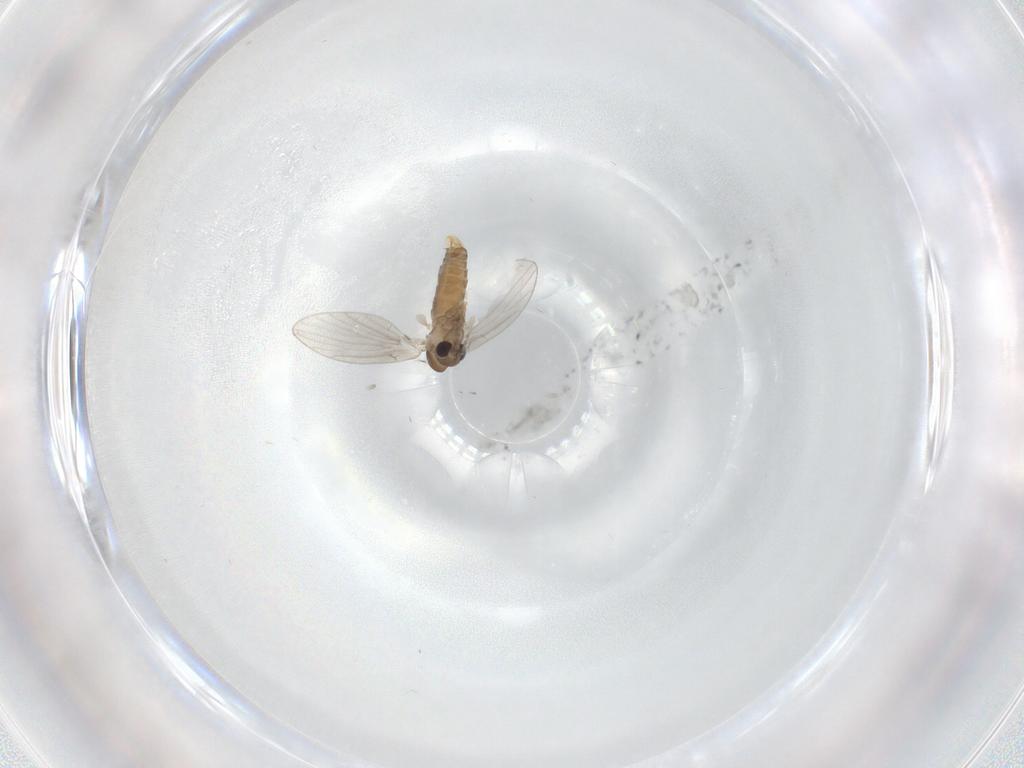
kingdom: Animalia
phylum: Arthropoda
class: Insecta
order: Diptera
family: Psychodidae
